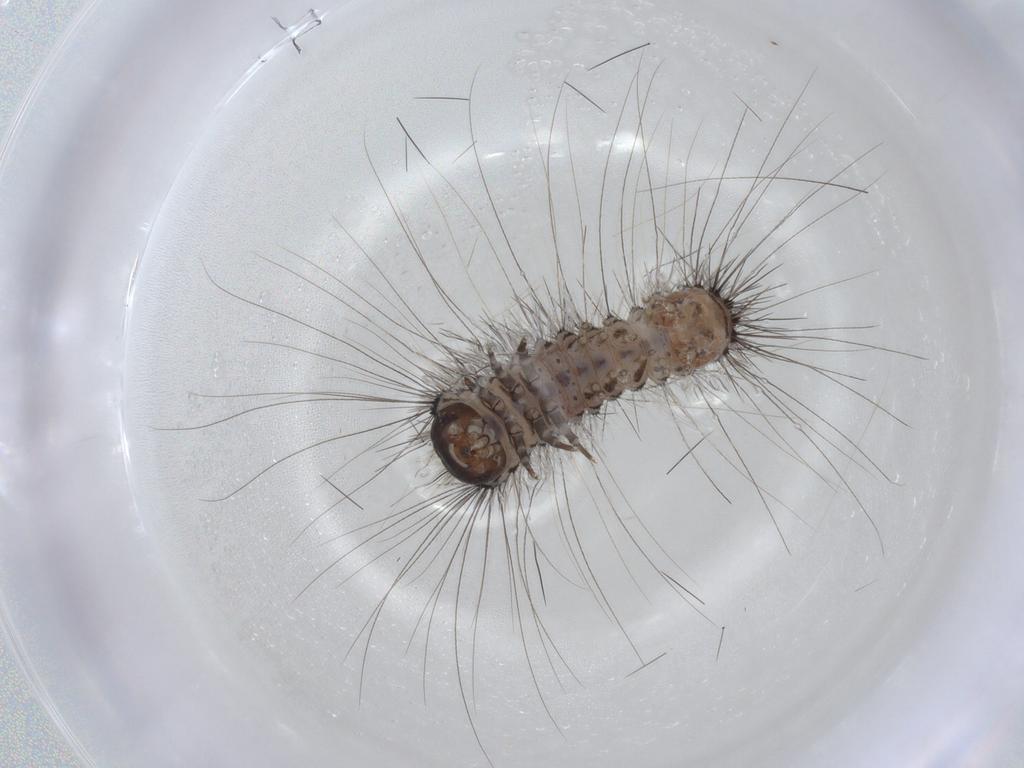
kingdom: Animalia
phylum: Arthropoda
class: Insecta
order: Lepidoptera
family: Erebidae
